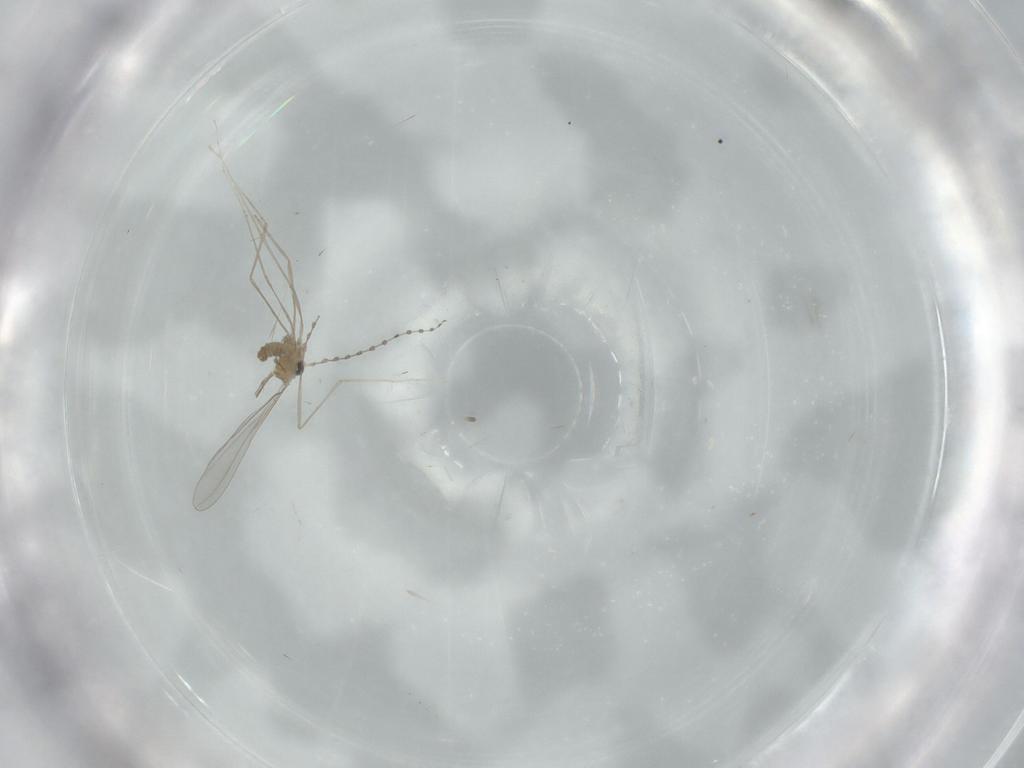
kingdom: Animalia
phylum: Arthropoda
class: Insecta
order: Diptera
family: Cecidomyiidae
